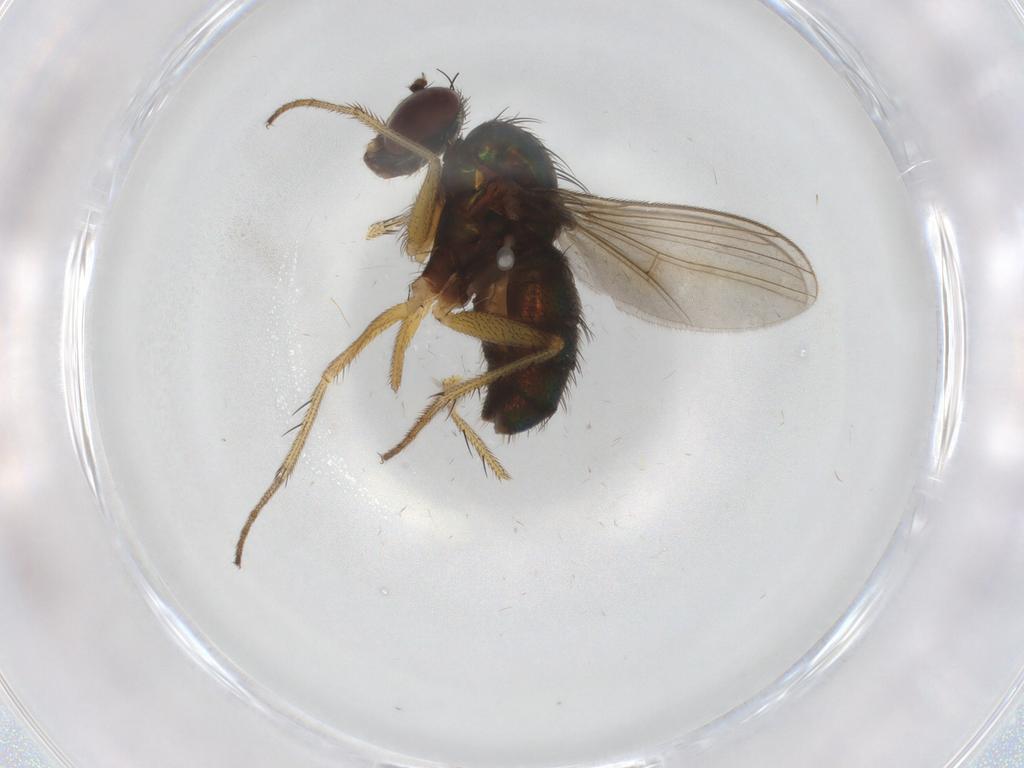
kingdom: Animalia
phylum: Arthropoda
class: Insecta
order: Diptera
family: Dolichopodidae
